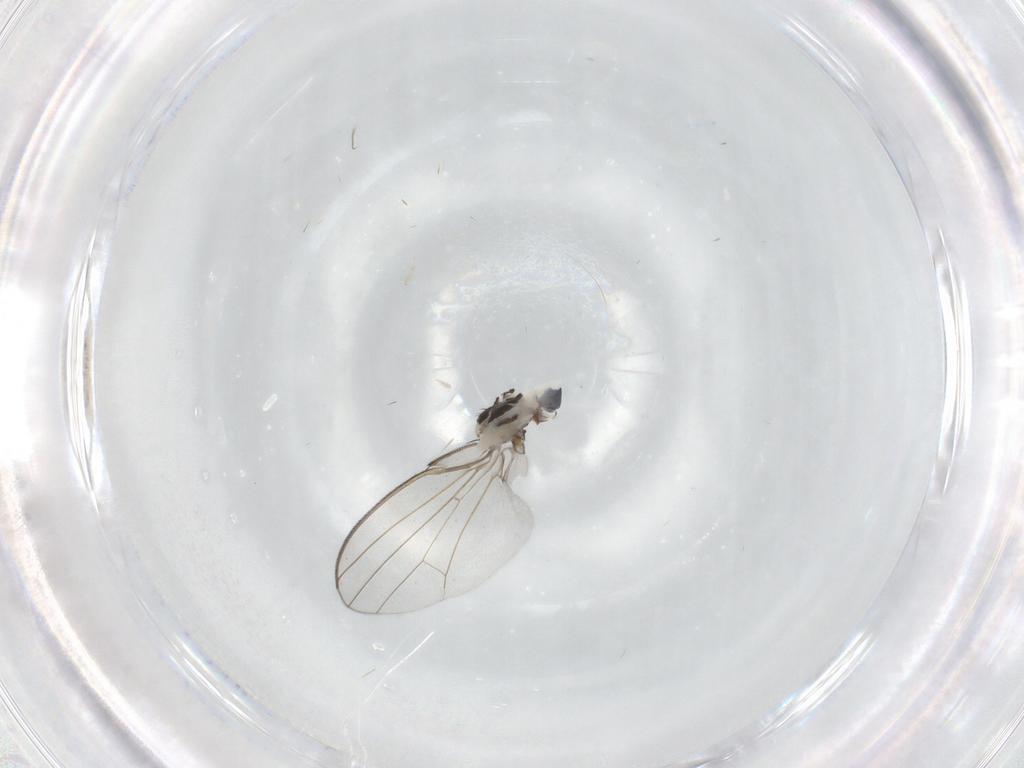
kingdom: Animalia
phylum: Arthropoda
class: Insecta
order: Diptera
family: Milichiidae
